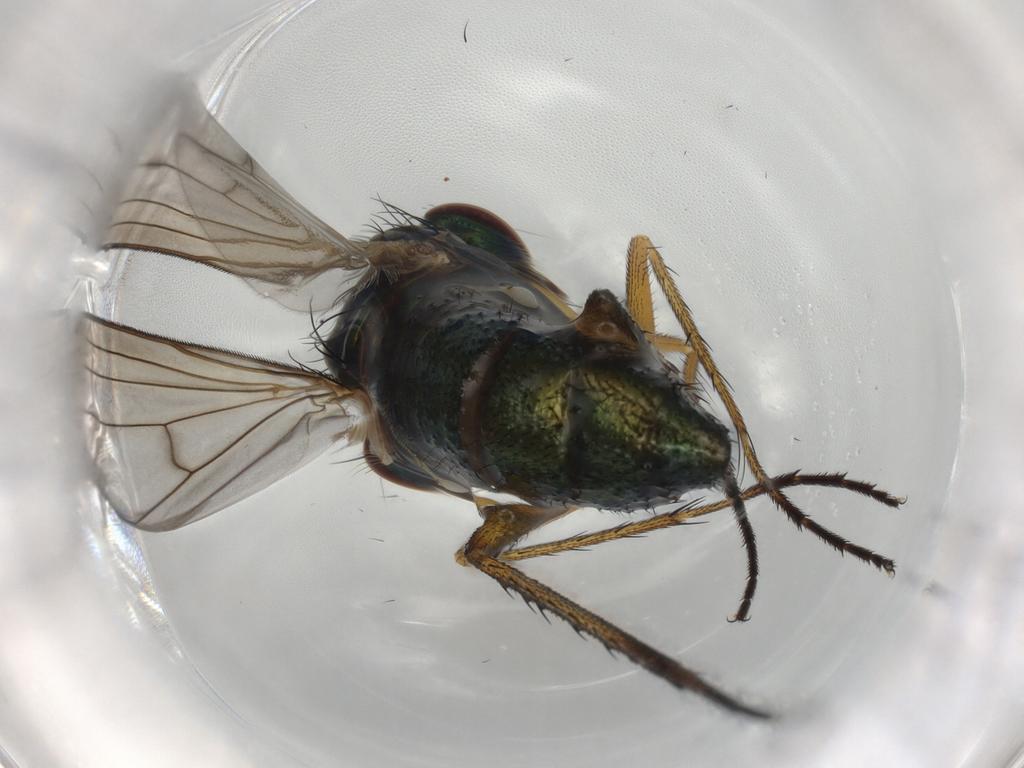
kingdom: Animalia
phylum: Arthropoda
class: Insecta
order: Diptera
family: Dolichopodidae
